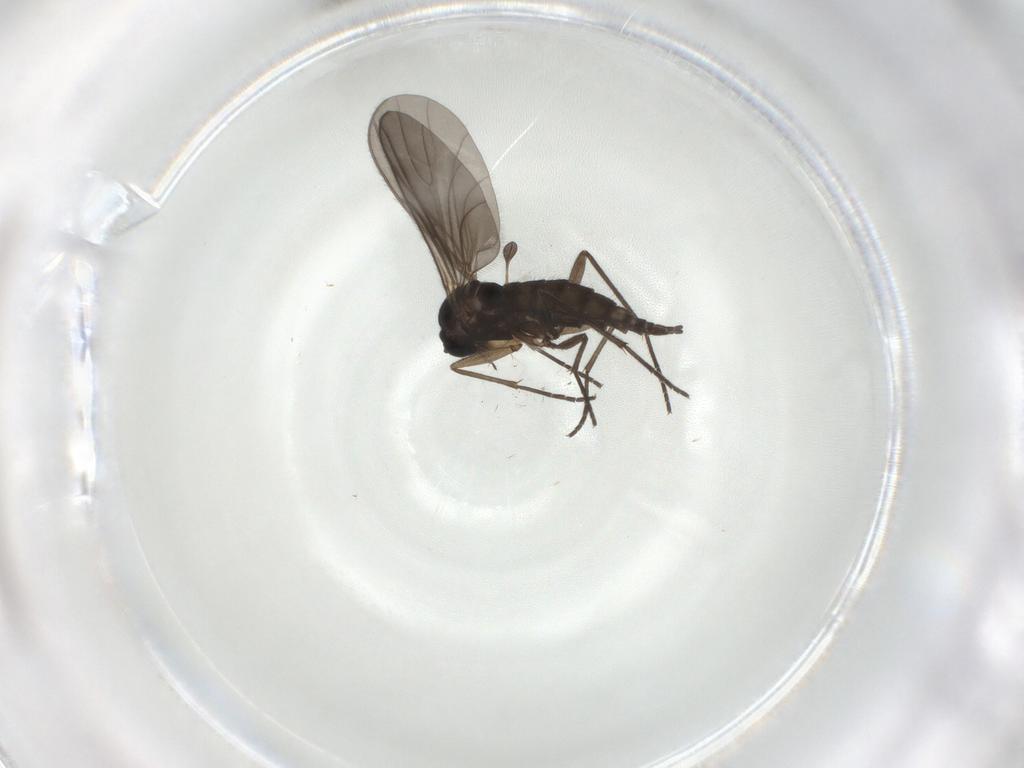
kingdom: Animalia
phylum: Arthropoda
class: Insecta
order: Diptera
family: Sciaridae
